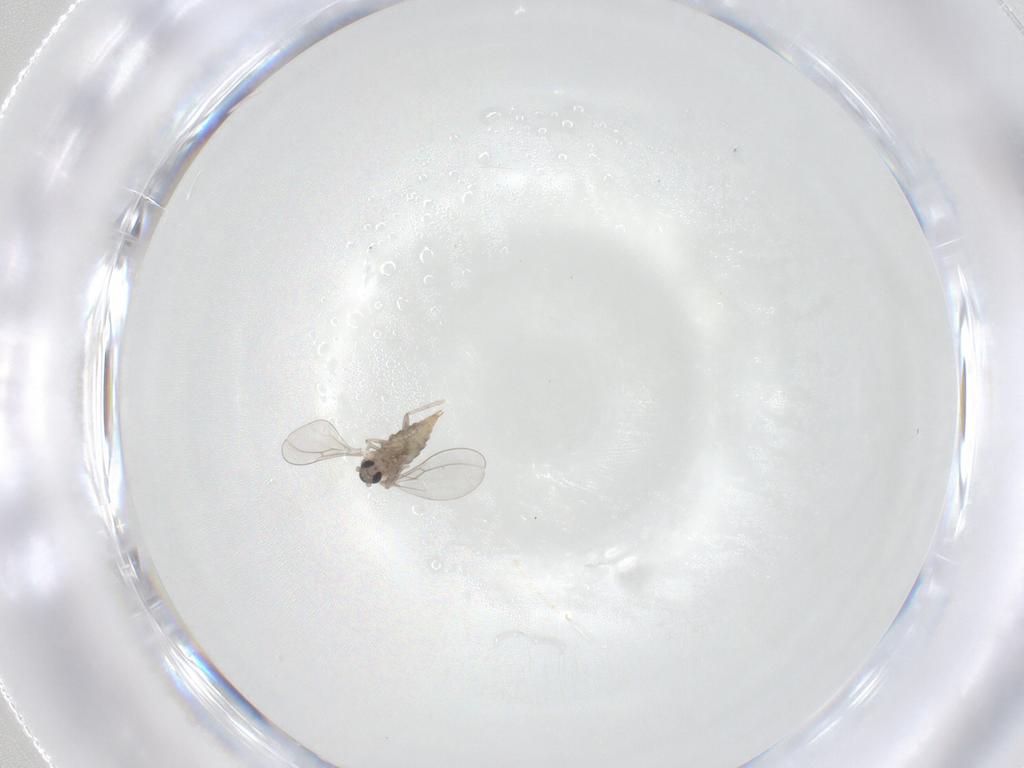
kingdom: Animalia
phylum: Arthropoda
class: Insecta
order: Diptera
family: Cecidomyiidae
